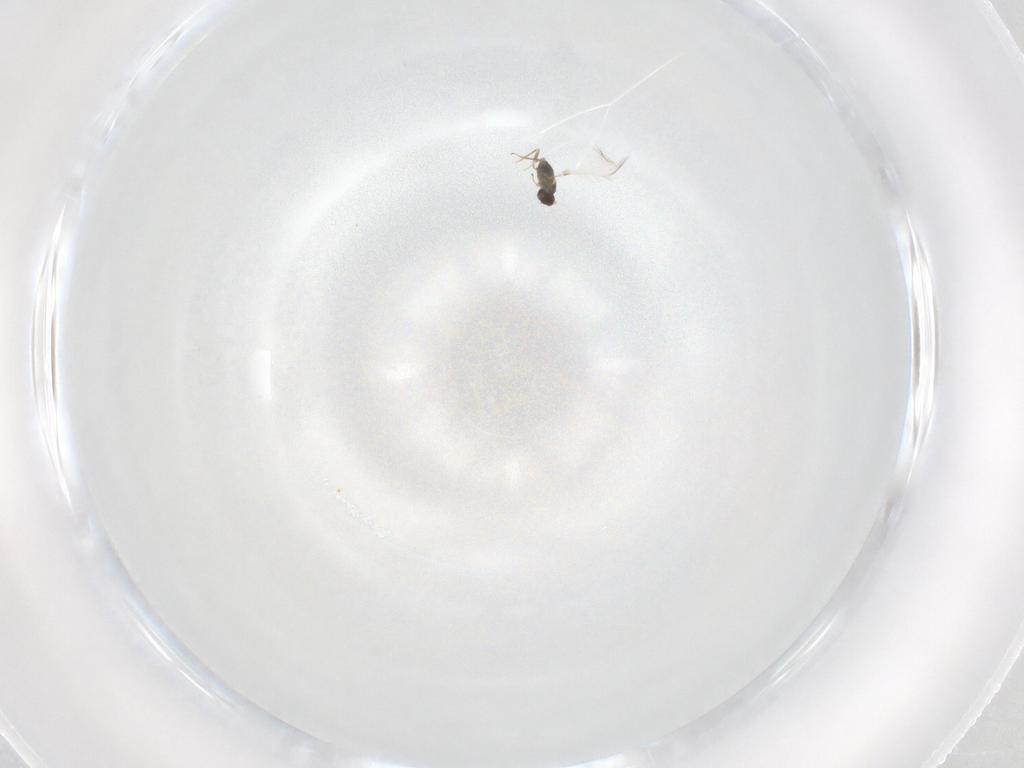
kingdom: Animalia
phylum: Arthropoda
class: Insecta
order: Hymenoptera
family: Mymaridae
